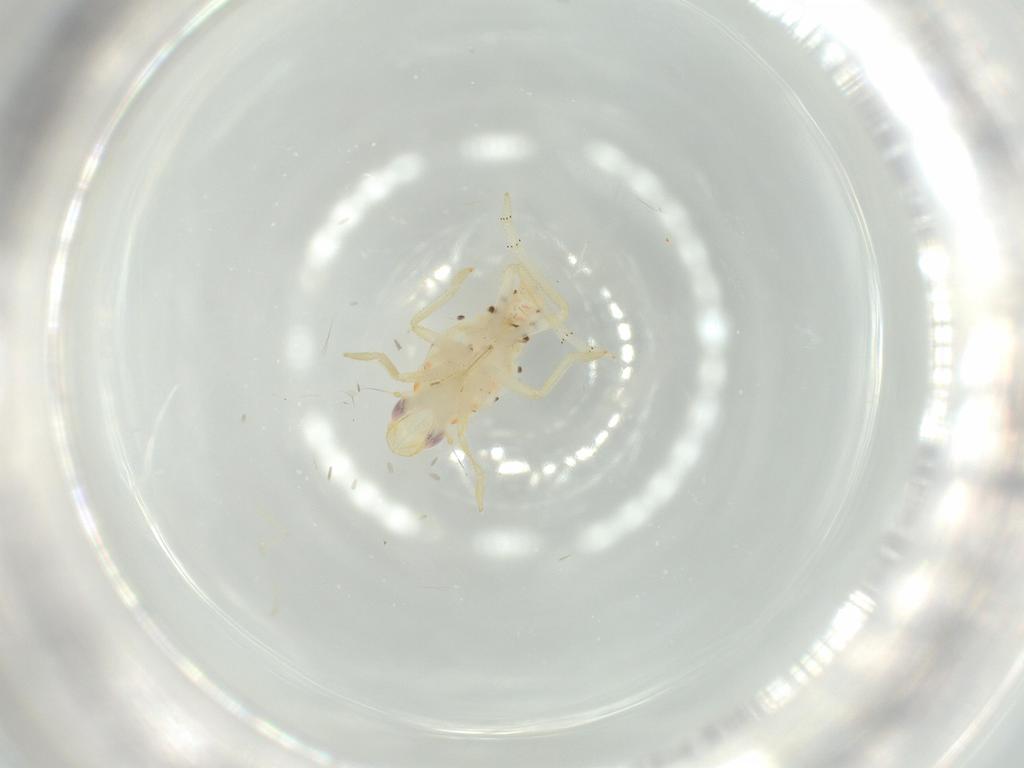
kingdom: Animalia
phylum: Arthropoda
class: Insecta
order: Hemiptera
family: Tropiduchidae
